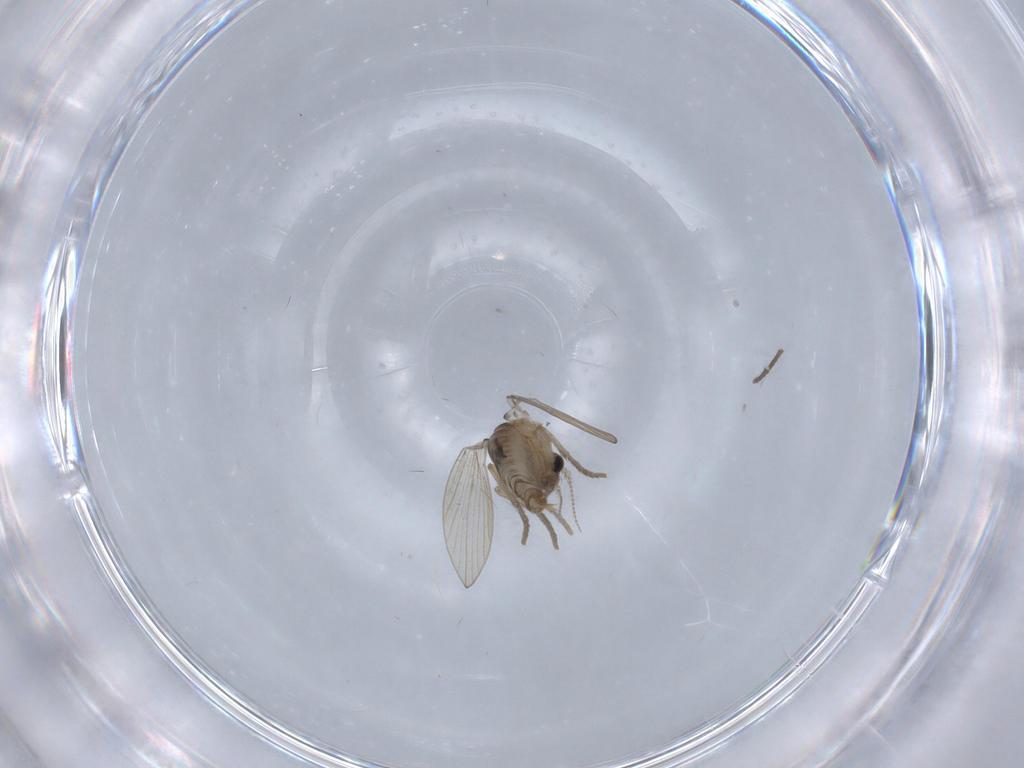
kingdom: Animalia
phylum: Arthropoda
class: Insecta
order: Diptera
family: Psychodidae
